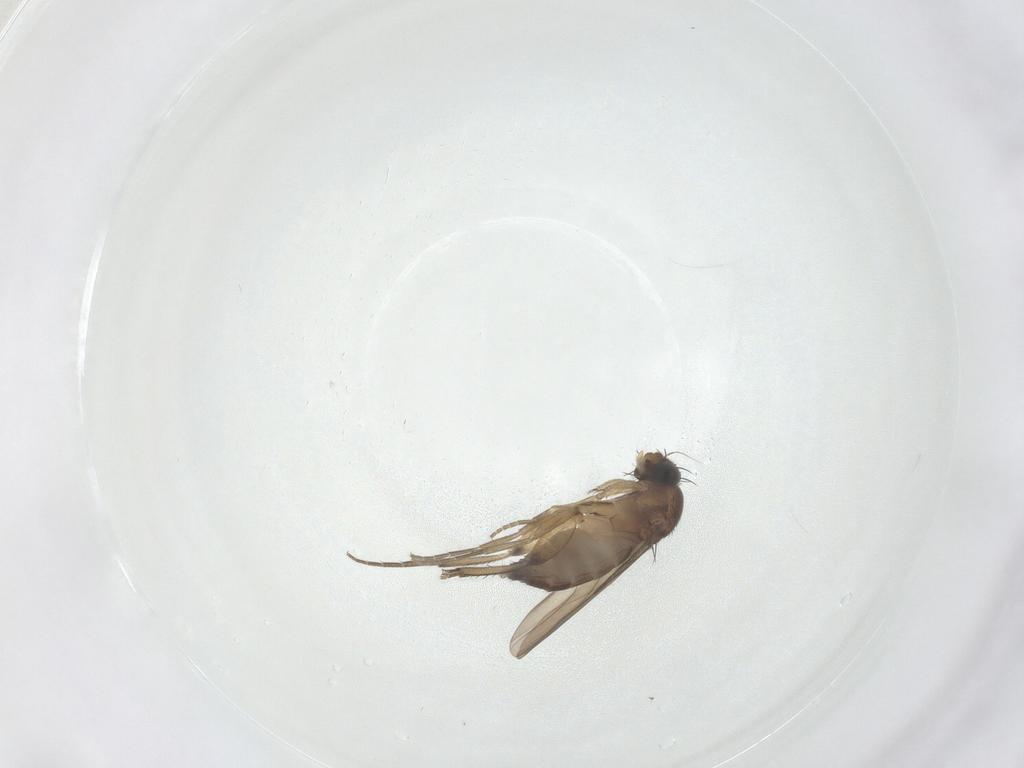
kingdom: Animalia
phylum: Arthropoda
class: Insecta
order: Diptera
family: Phoridae
